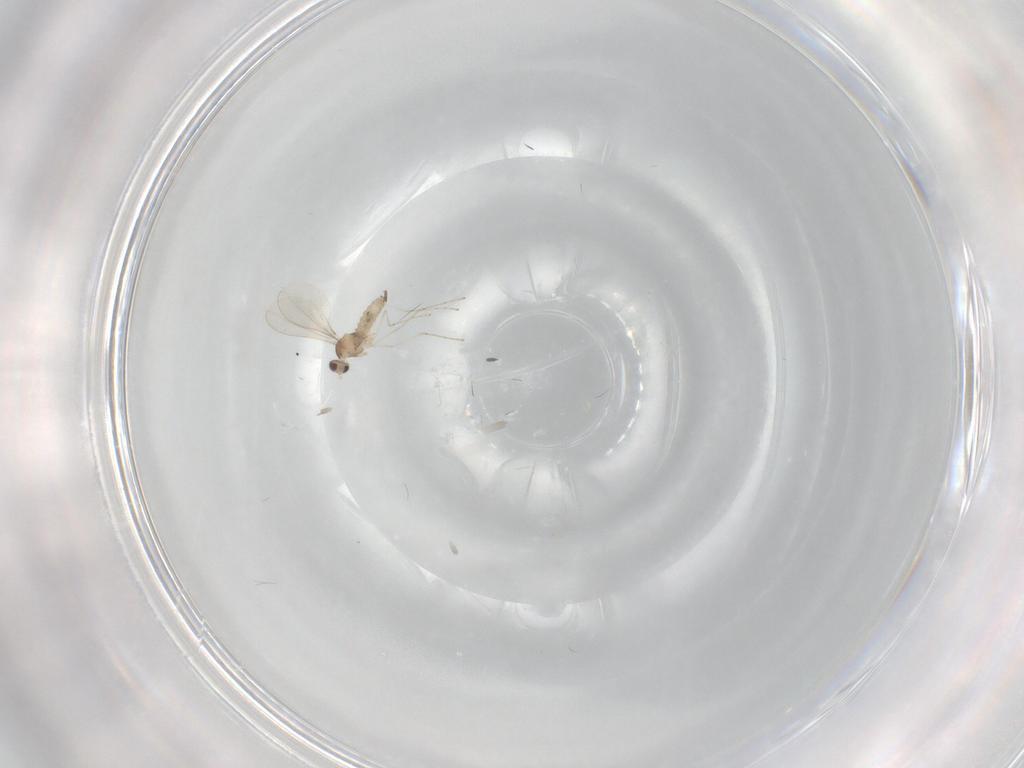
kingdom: Animalia
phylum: Arthropoda
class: Insecta
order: Diptera
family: Cecidomyiidae
